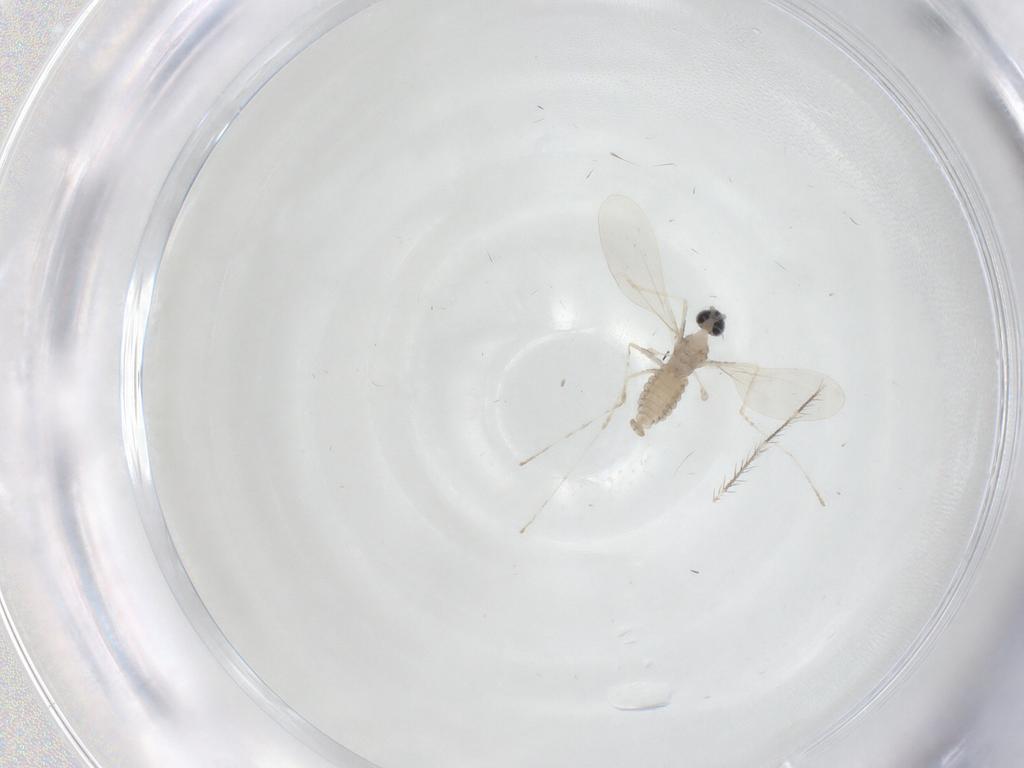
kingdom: Animalia
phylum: Arthropoda
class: Insecta
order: Diptera
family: Cecidomyiidae
